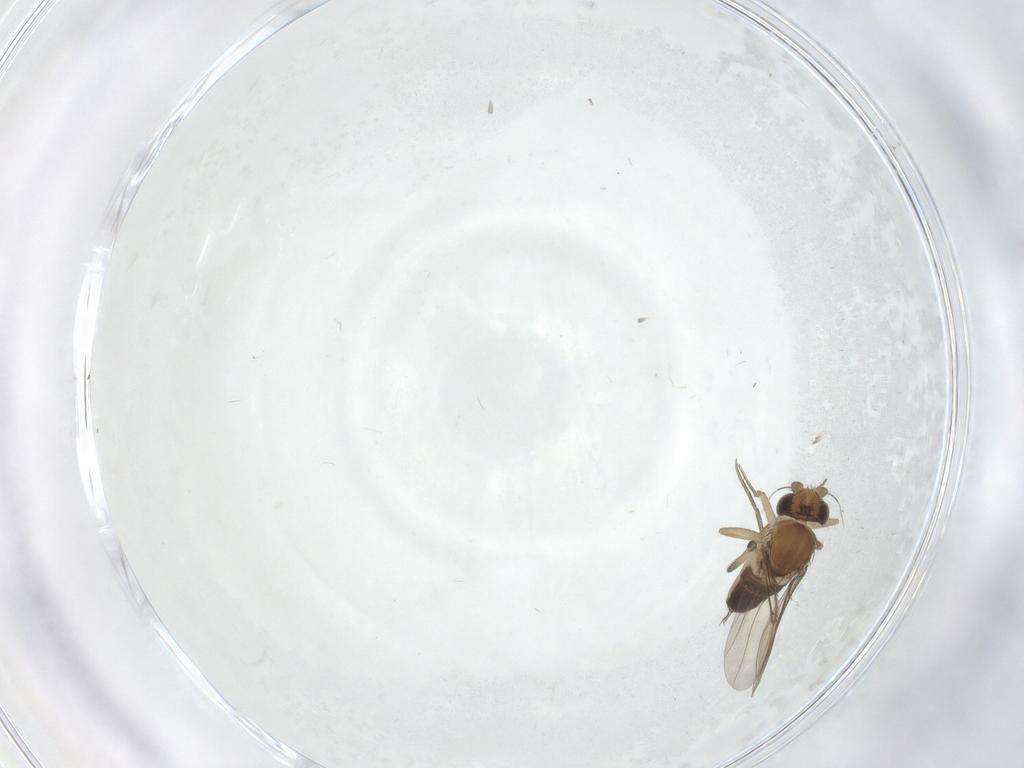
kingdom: Animalia
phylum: Arthropoda
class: Insecta
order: Diptera
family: Phoridae
